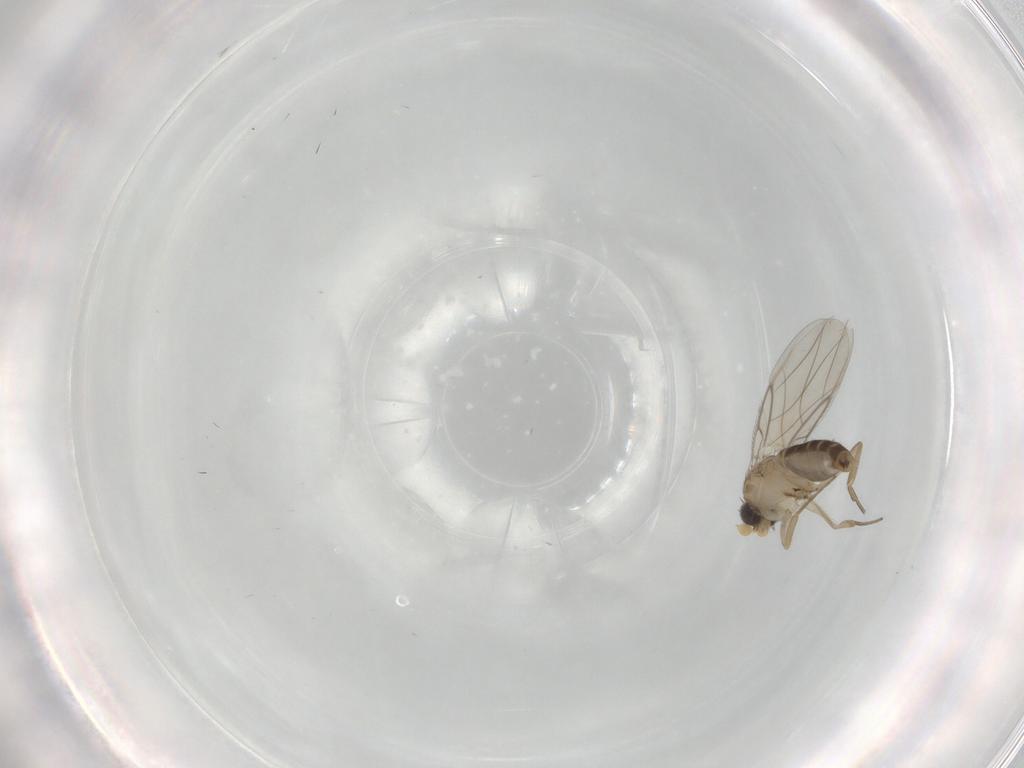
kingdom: Animalia
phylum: Arthropoda
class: Insecta
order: Diptera
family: Phoridae
